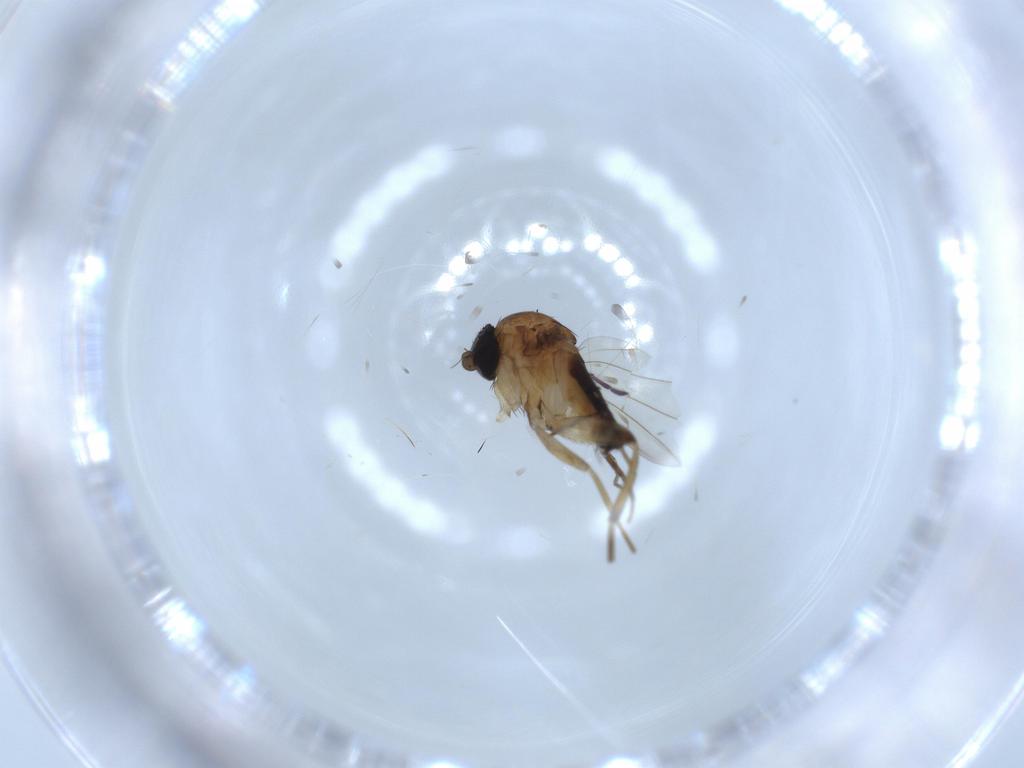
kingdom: Animalia
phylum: Arthropoda
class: Insecta
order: Diptera
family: Phoridae
